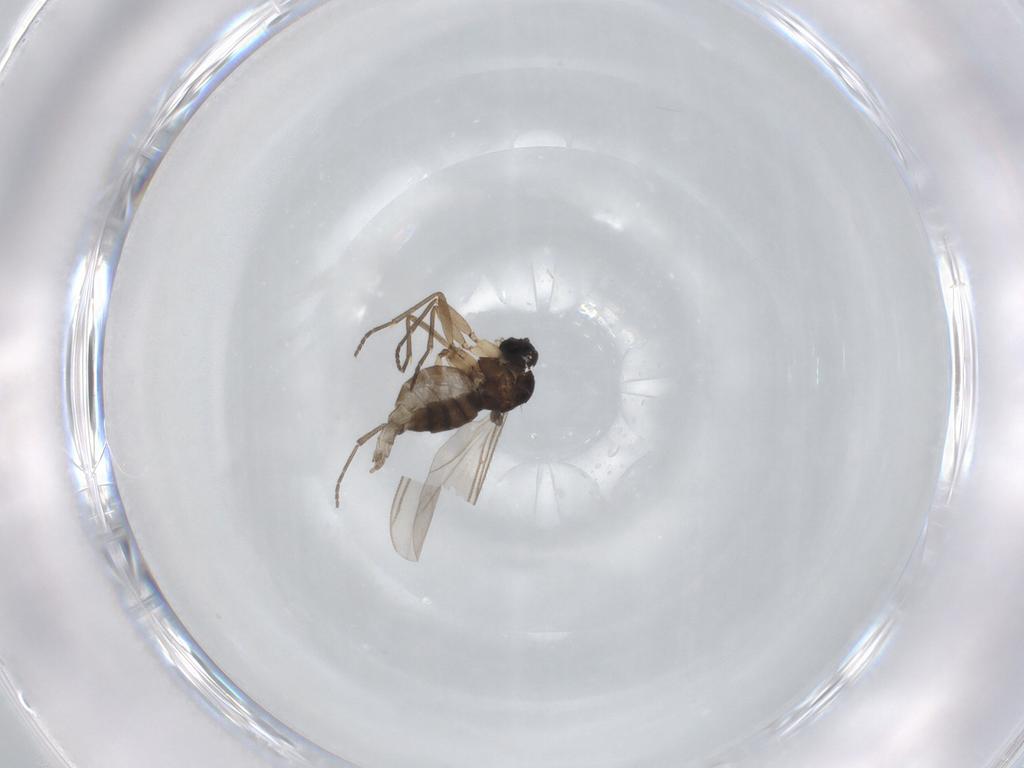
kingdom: Animalia
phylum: Arthropoda
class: Insecta
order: Diptera
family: Sciaridae
